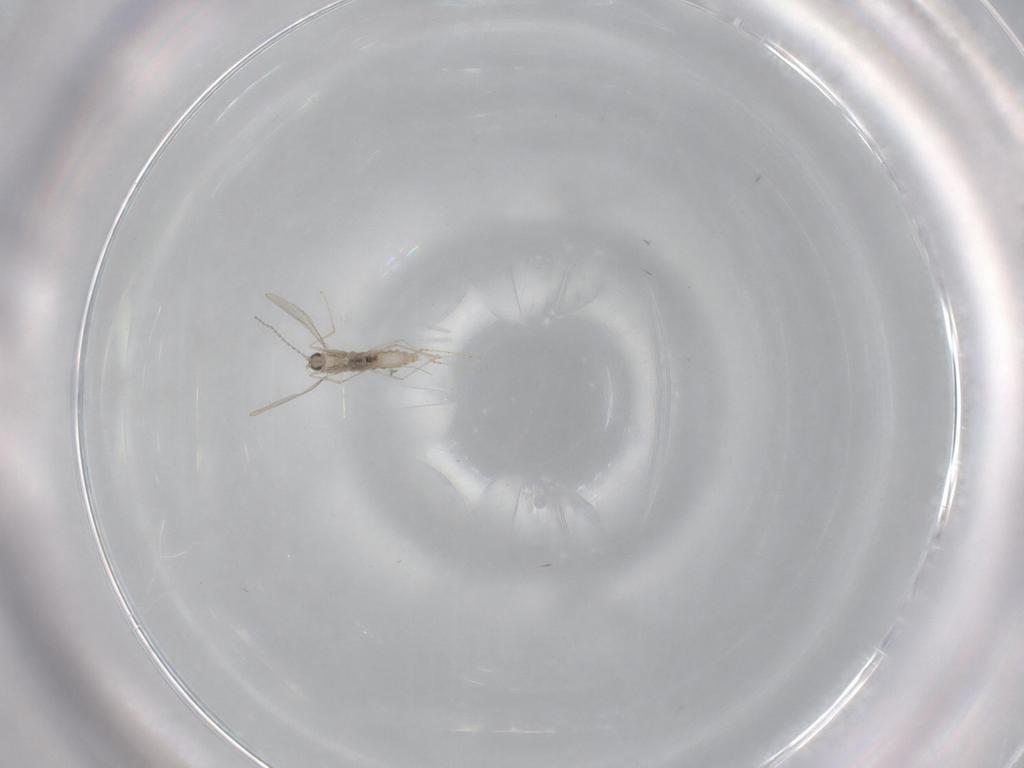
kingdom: Animalia
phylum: Arthropoda
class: Insecta
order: Diptera
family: Cecidomyiidae
